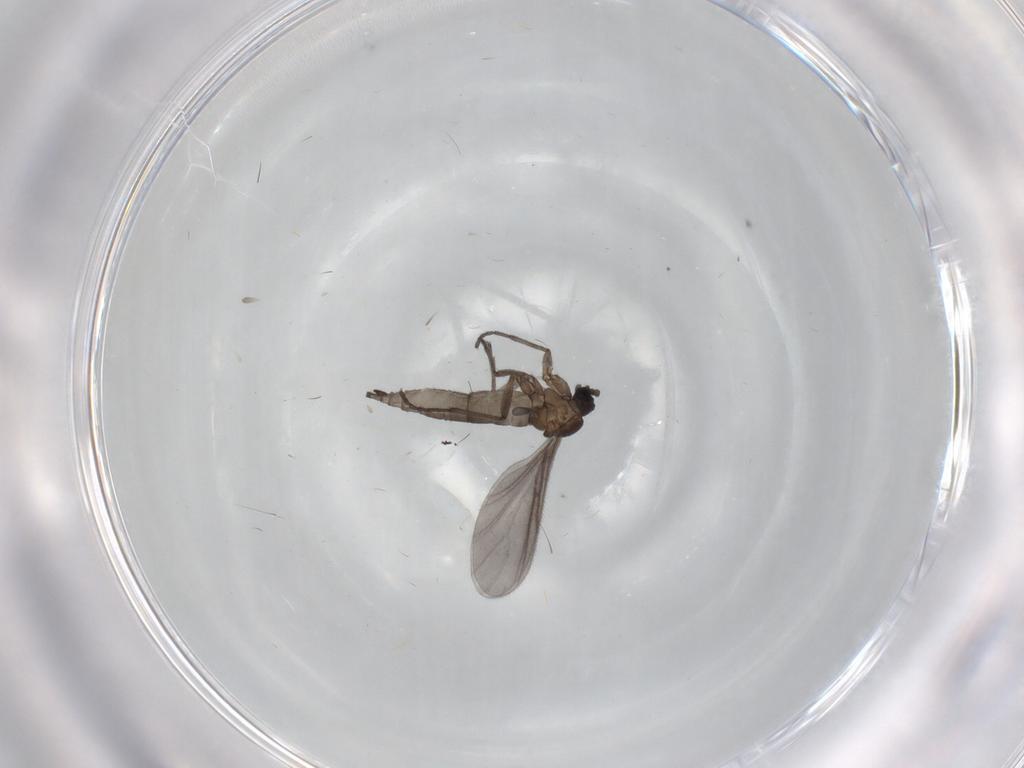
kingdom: Animalia
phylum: Arthropoda
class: Insecta
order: Diptera
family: Sciaridae
